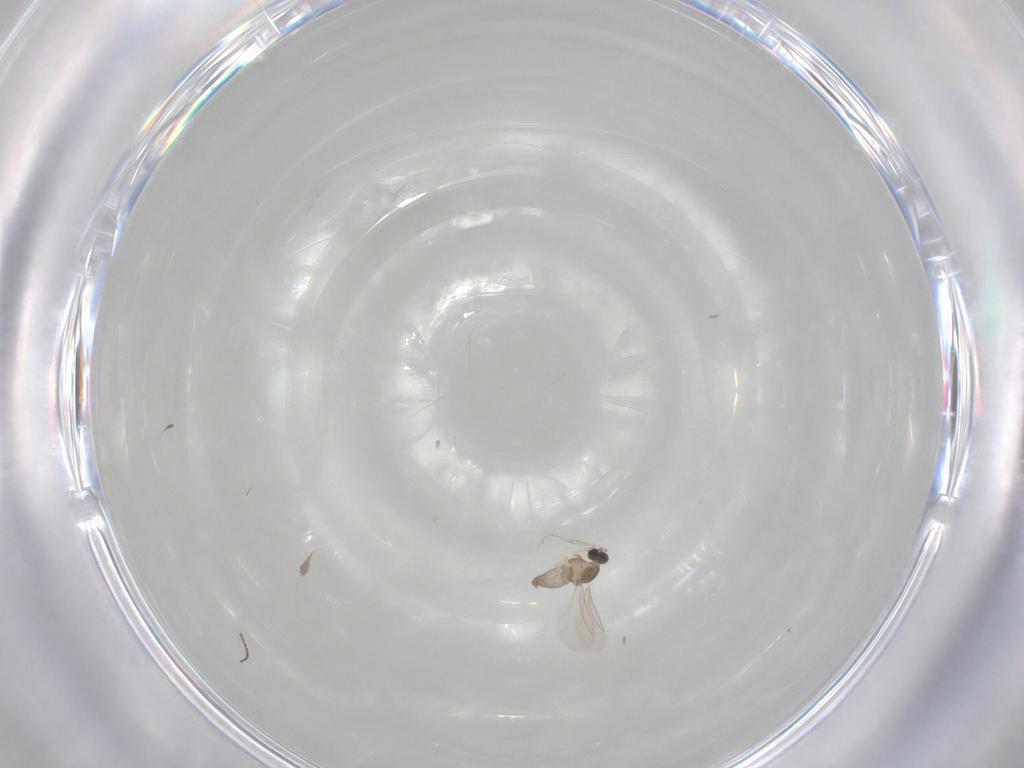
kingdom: Animalia
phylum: Arthropoda
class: Insecta
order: Diptera
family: Cecidomyiidae
